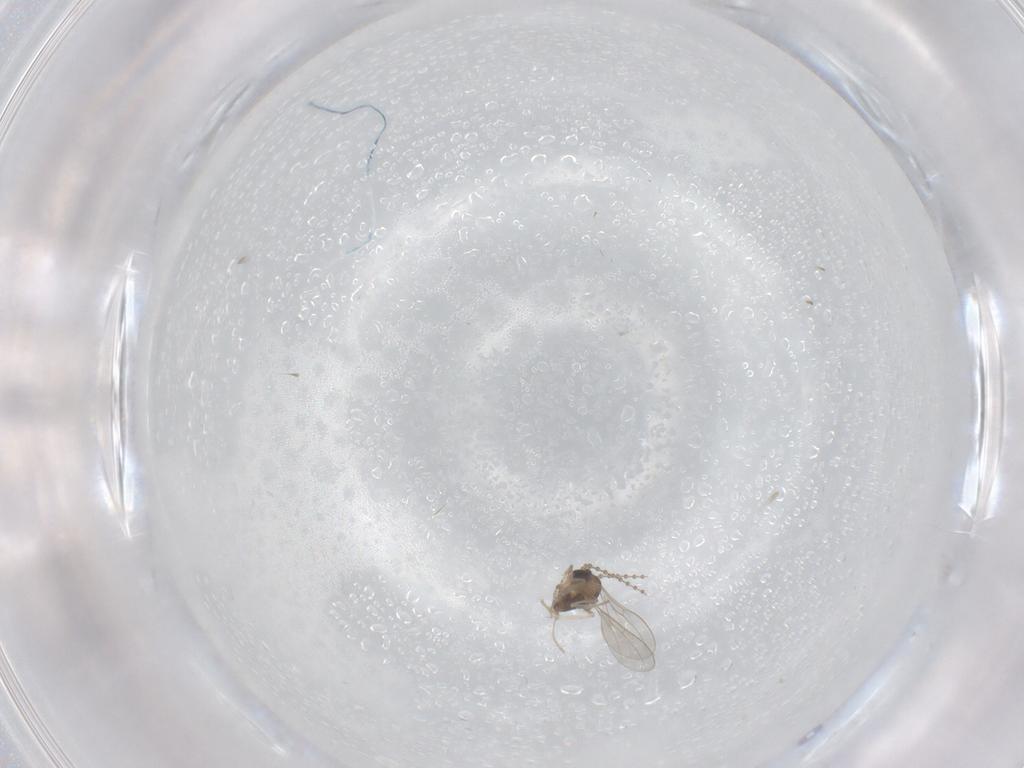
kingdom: Animalia
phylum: Arthropoda
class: Insecta
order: Diptera
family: Cecidomyiidae
